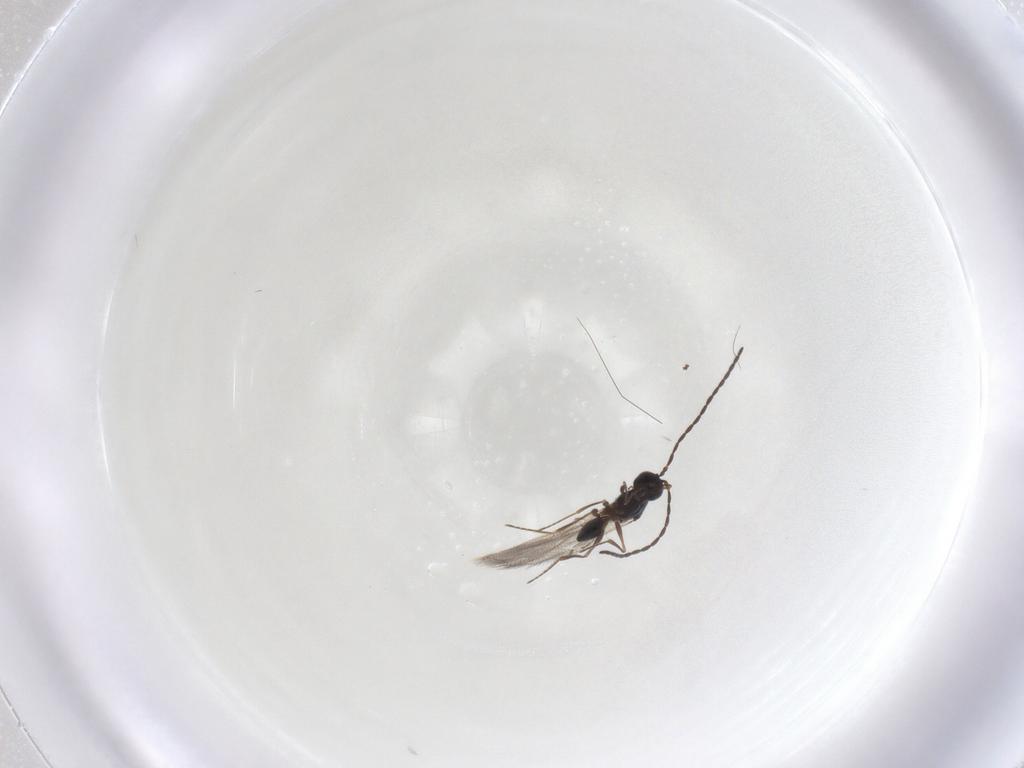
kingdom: Animalia
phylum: Arthropoda
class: Insecta
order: Hymenoptera
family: Figitidae
